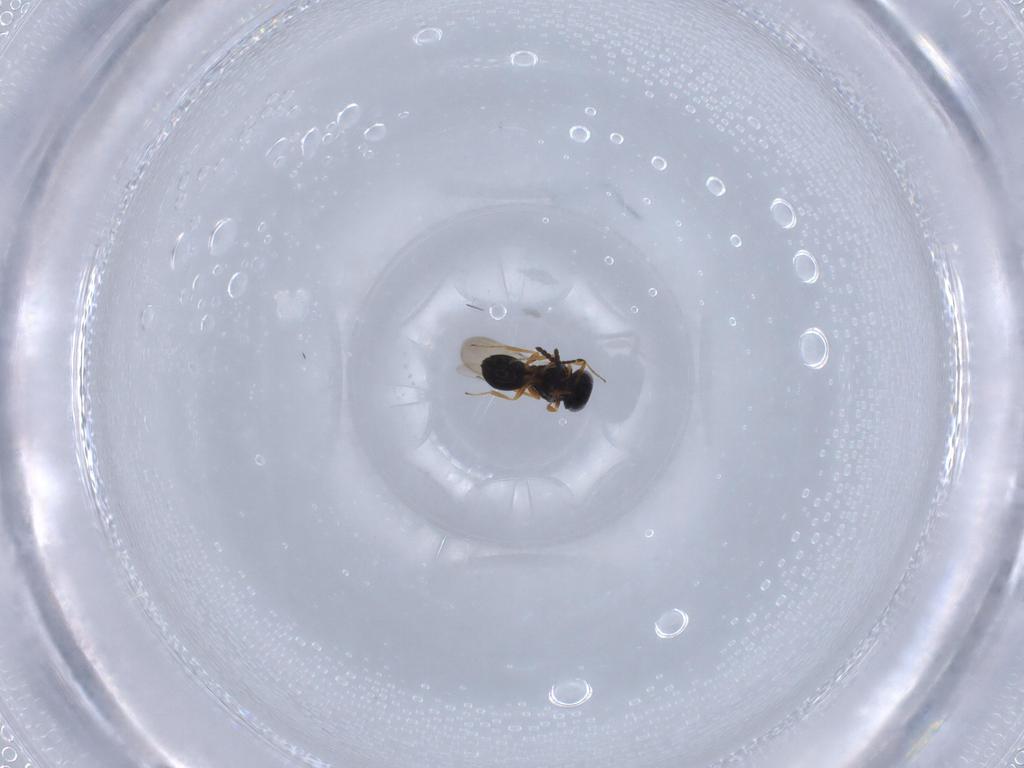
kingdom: Animalia
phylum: Arthropoda
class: Insecta
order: Hymenoptera
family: Scelionidae
